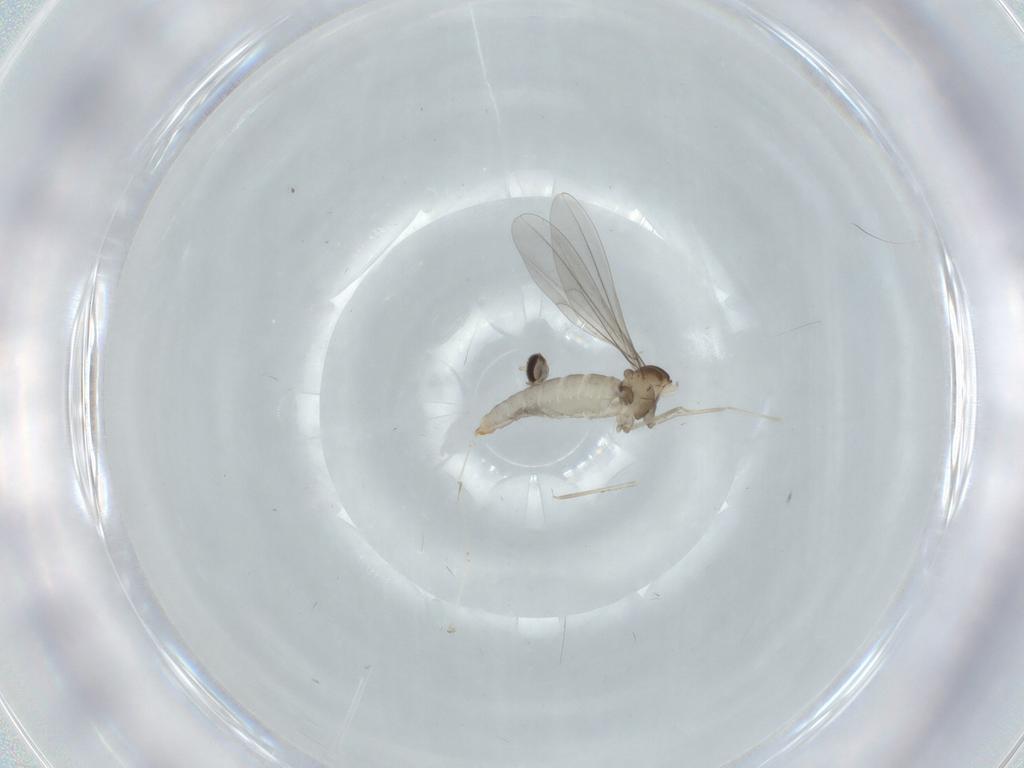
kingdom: Animalia
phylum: Arthropoda
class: Insecta
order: Diptera
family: Cecidomyiidae
